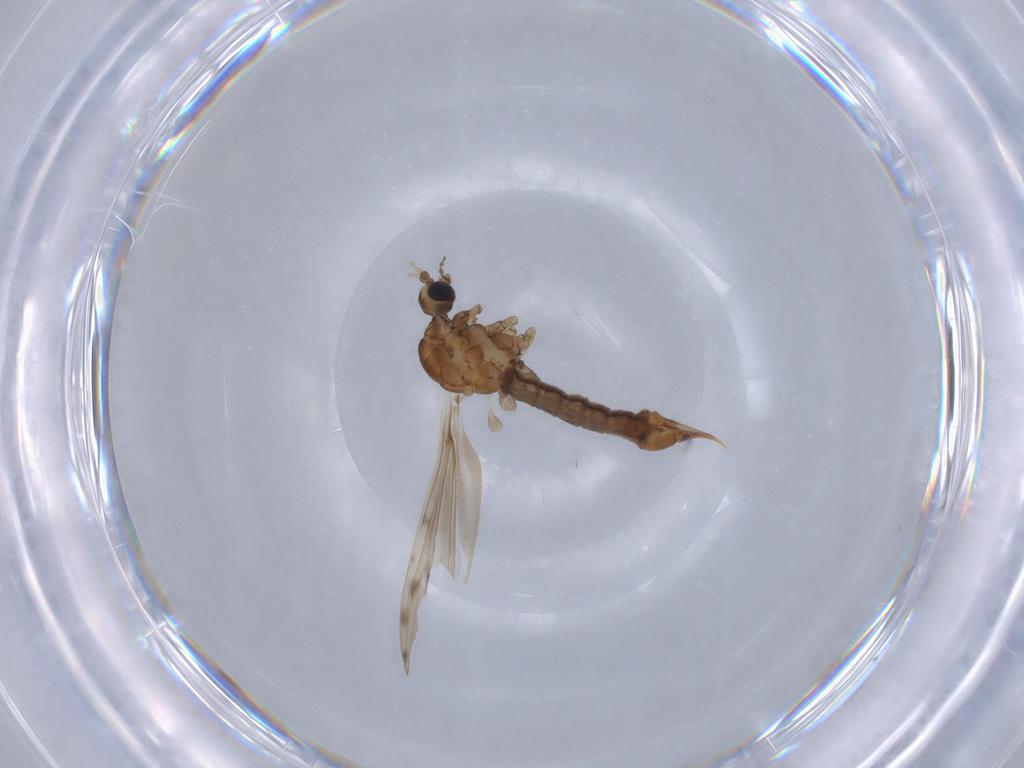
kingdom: Animalia
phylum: Arthropoda
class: Insecta
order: Diptera
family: Limoniidae
